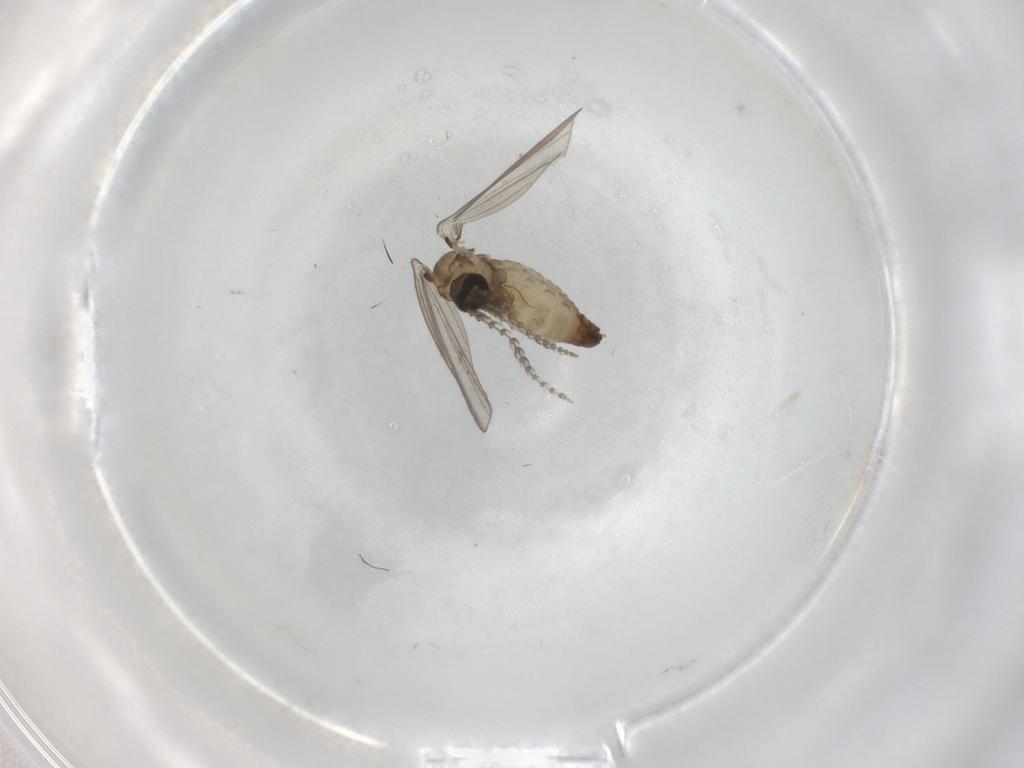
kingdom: Animalia
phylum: Arthropoda
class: Insecta
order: Diptera
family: Psychodidae
